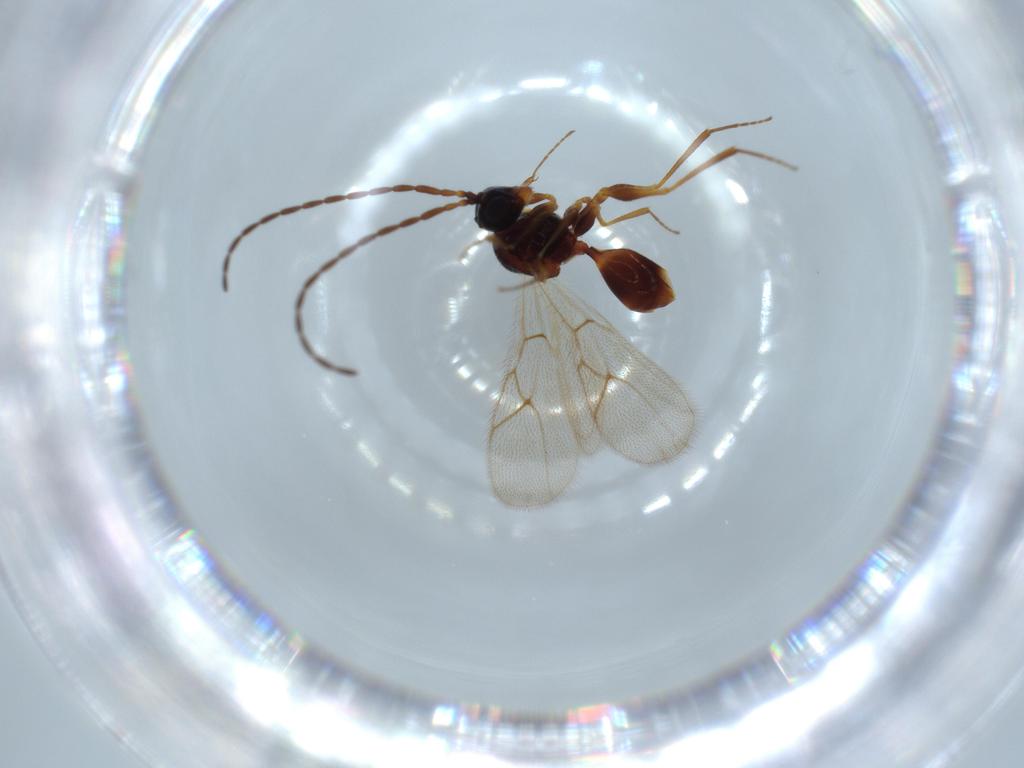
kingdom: Animalia
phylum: Arthropoda
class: Insecta
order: Hymenoptera
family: Figitidae
